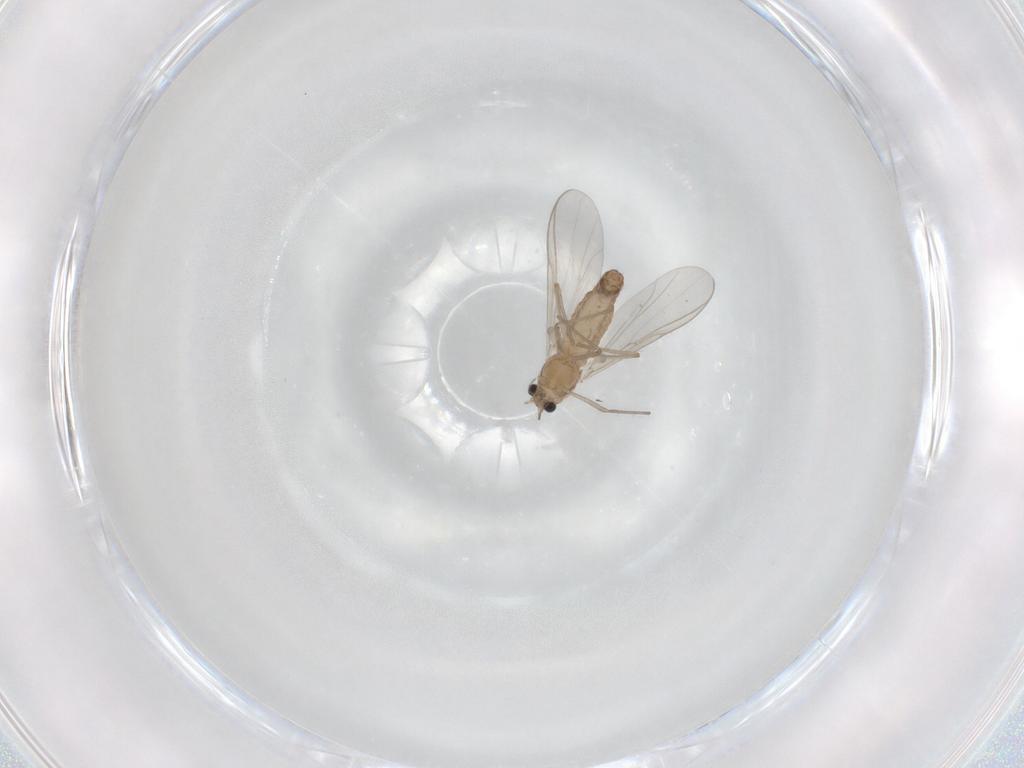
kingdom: Animalia
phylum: Arthropoda
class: Insecta
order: Diptera
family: Chironomidae
